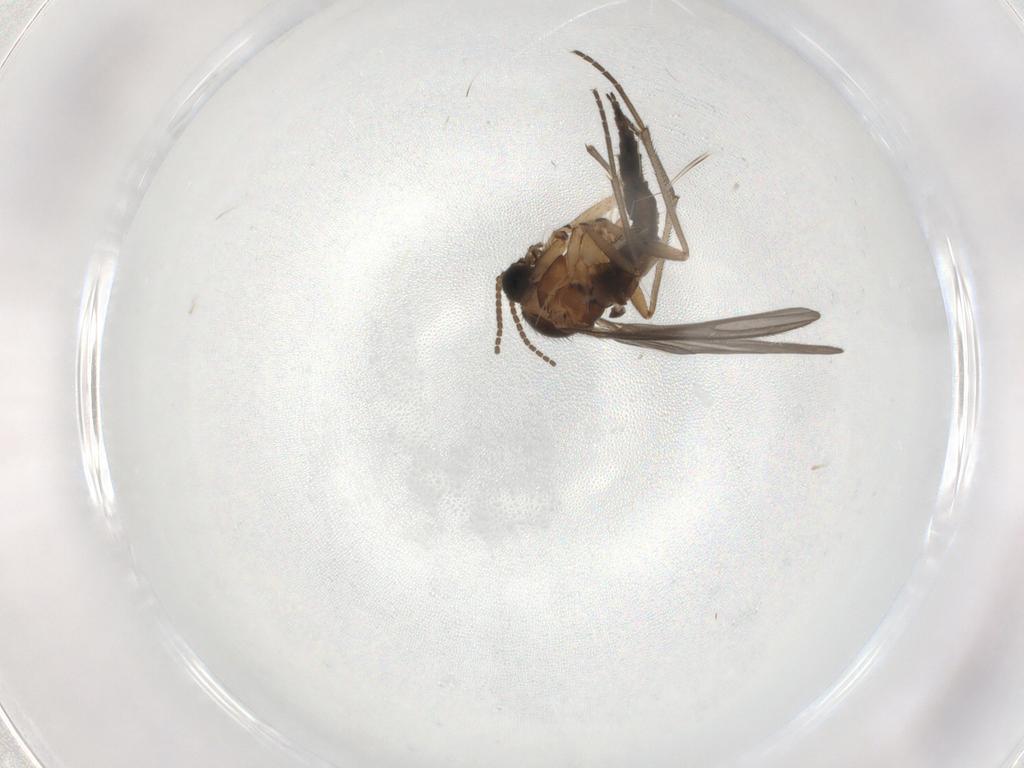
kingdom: Animalia
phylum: Arthropoda
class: Insecta
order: Diptera
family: Sciaridae
